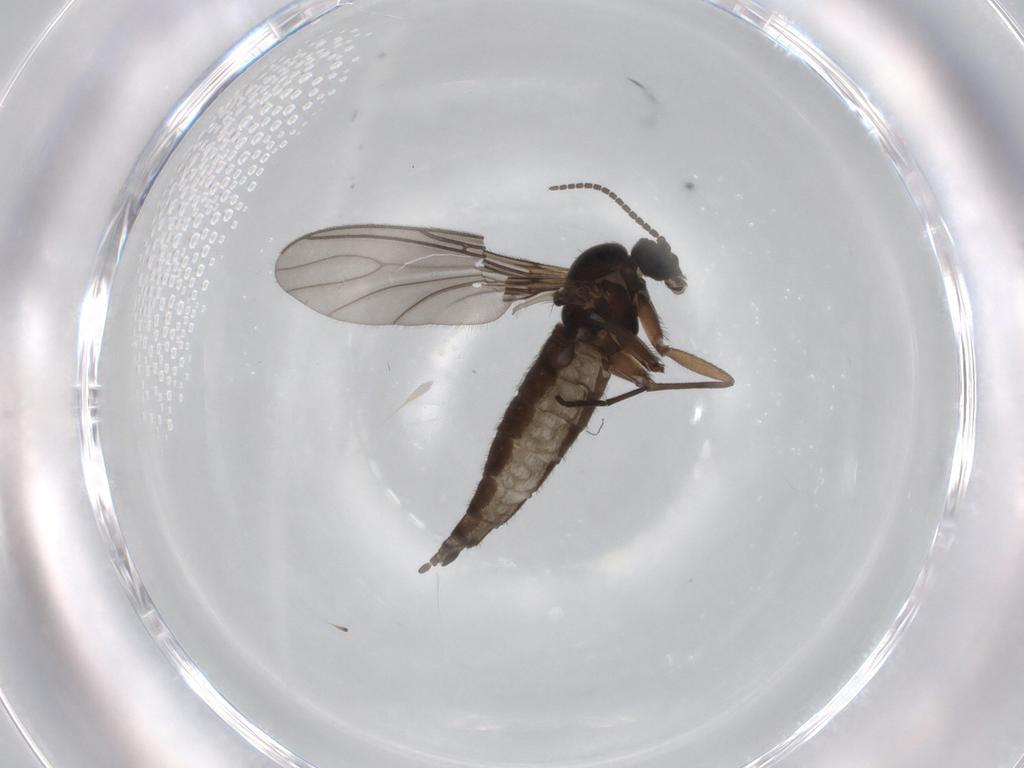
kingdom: Animalia
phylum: Arthropoda
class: Insecta
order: Diptera
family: Sciaridae
